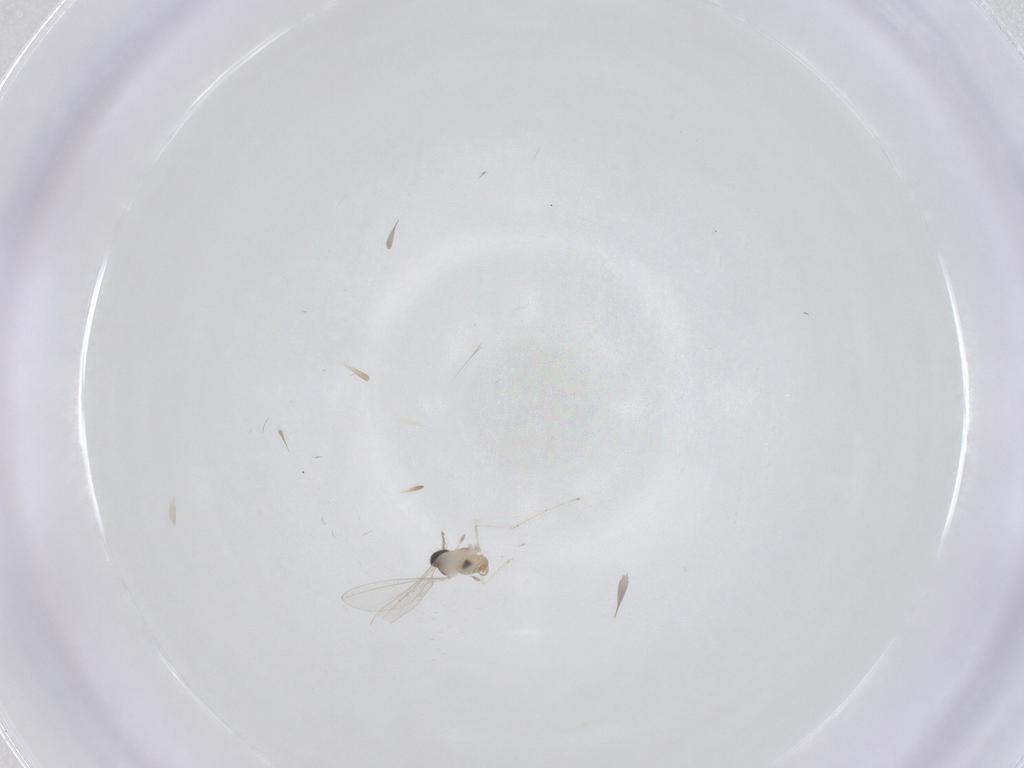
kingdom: Animalia
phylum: Arthropoda
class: Insecta
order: Diptera
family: Cecidomyiidae
